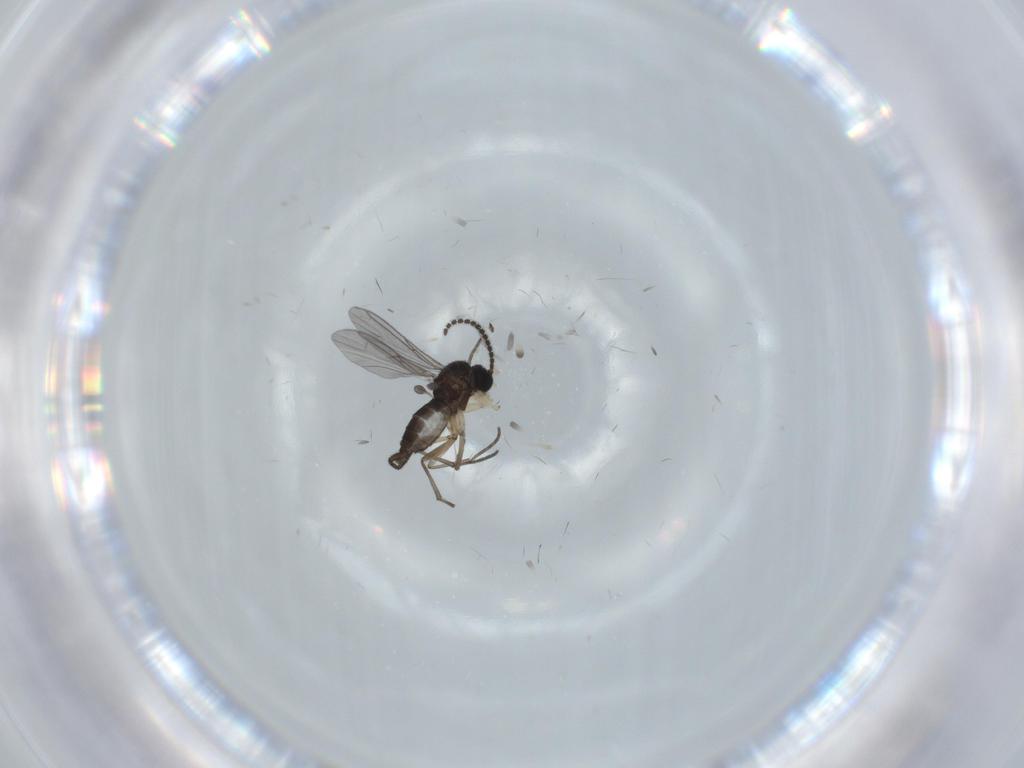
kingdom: Animalia
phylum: Arthropoda
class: Insecta
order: Diptera
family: Sciaridae
